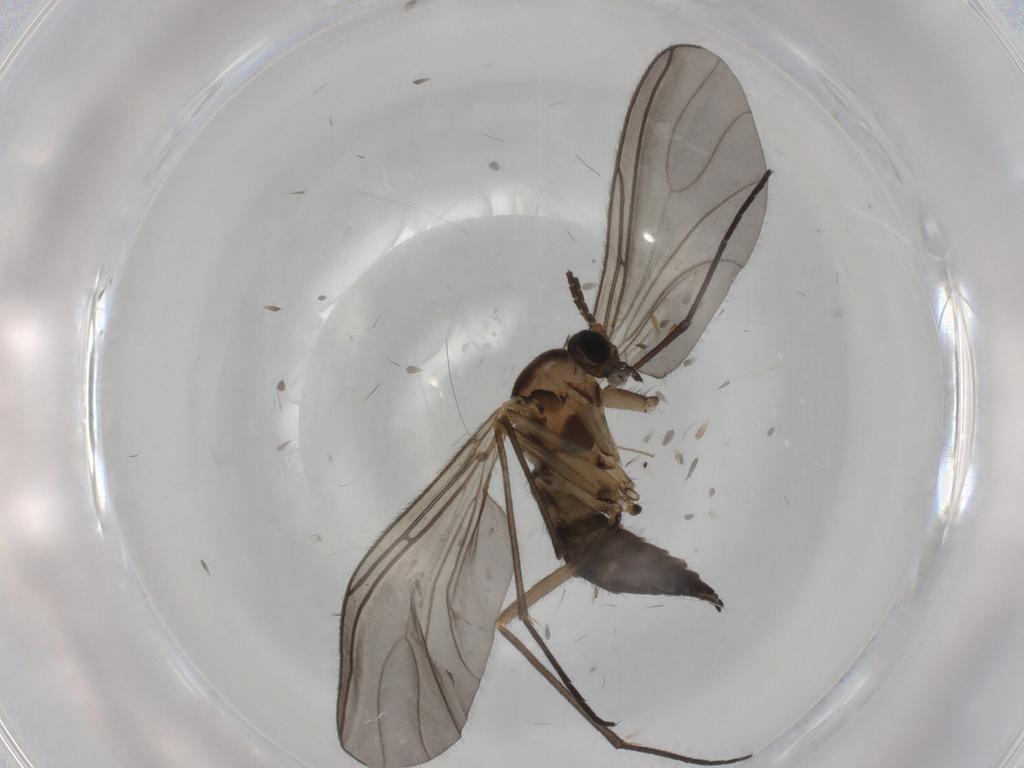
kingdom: Animalia
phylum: Arthropoda
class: Insecta
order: Diptera
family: Sciaridae
